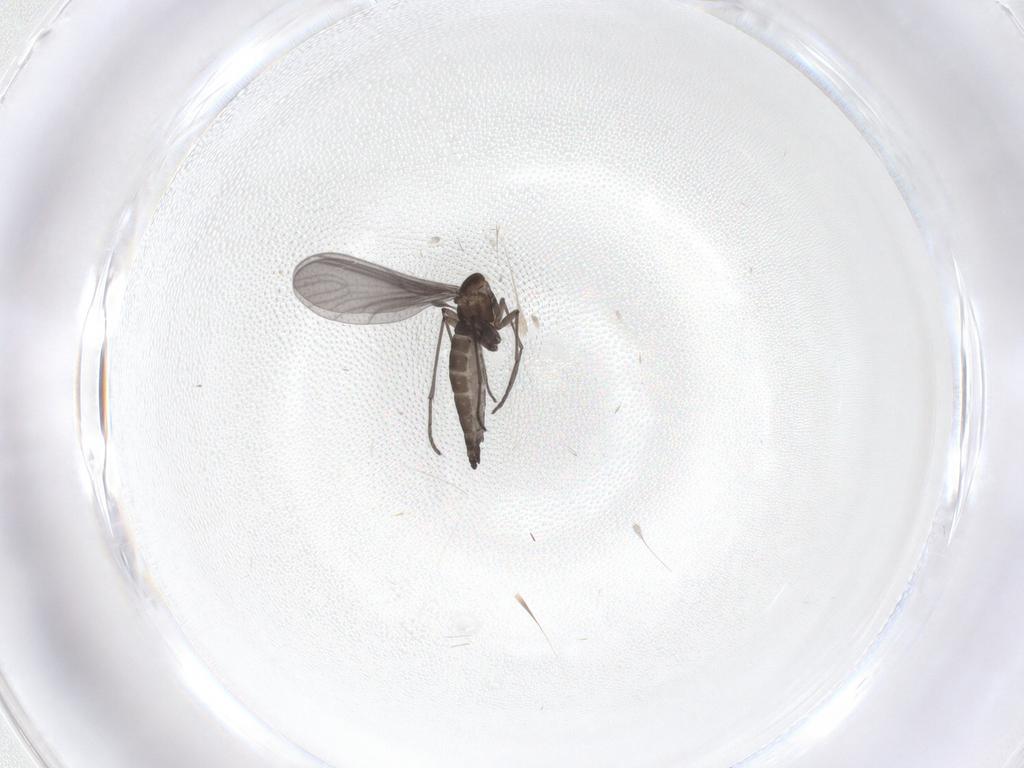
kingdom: Animalia
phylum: Arthropoda
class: Insecta
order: Diptera
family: Sciaridae
